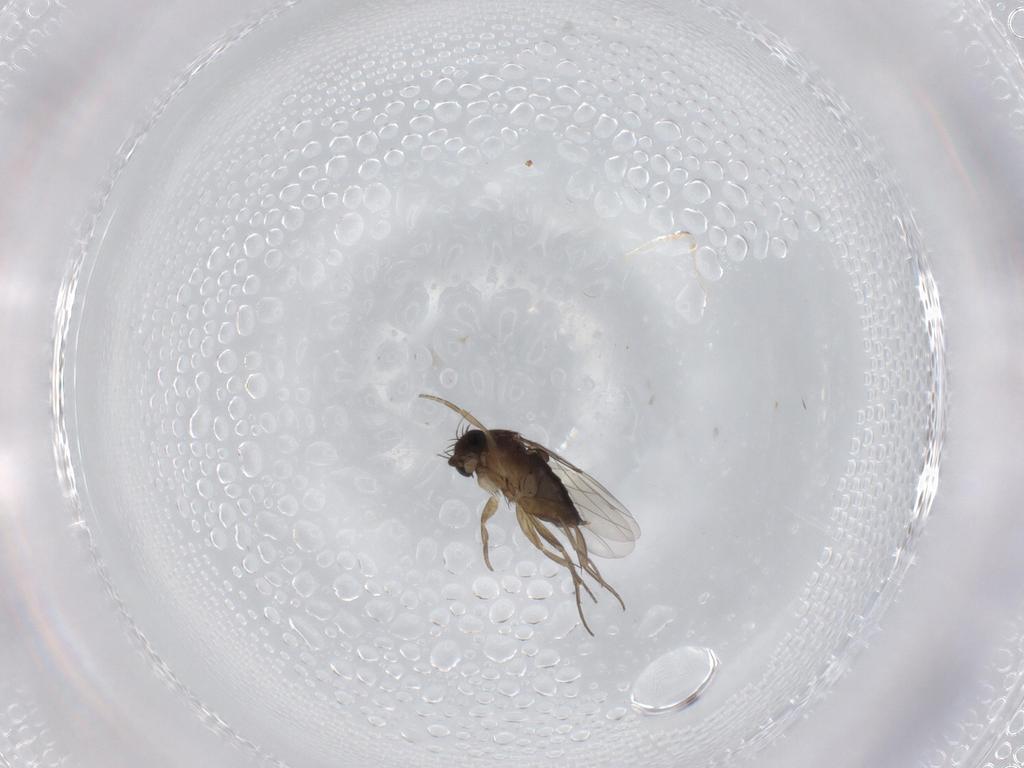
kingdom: Animalia
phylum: Arthropoda
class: Insecta
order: Diptera
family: Phoridae
